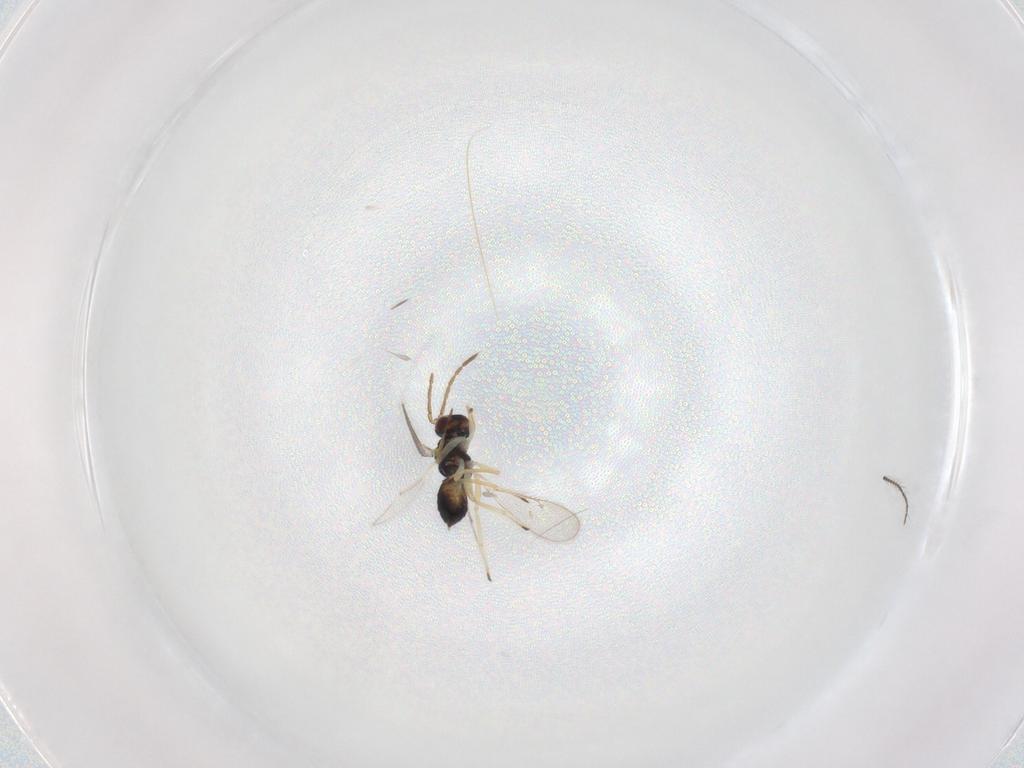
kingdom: Animalia
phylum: Arthropoda
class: Insecta
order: Hymenoptera
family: Eulophidae
